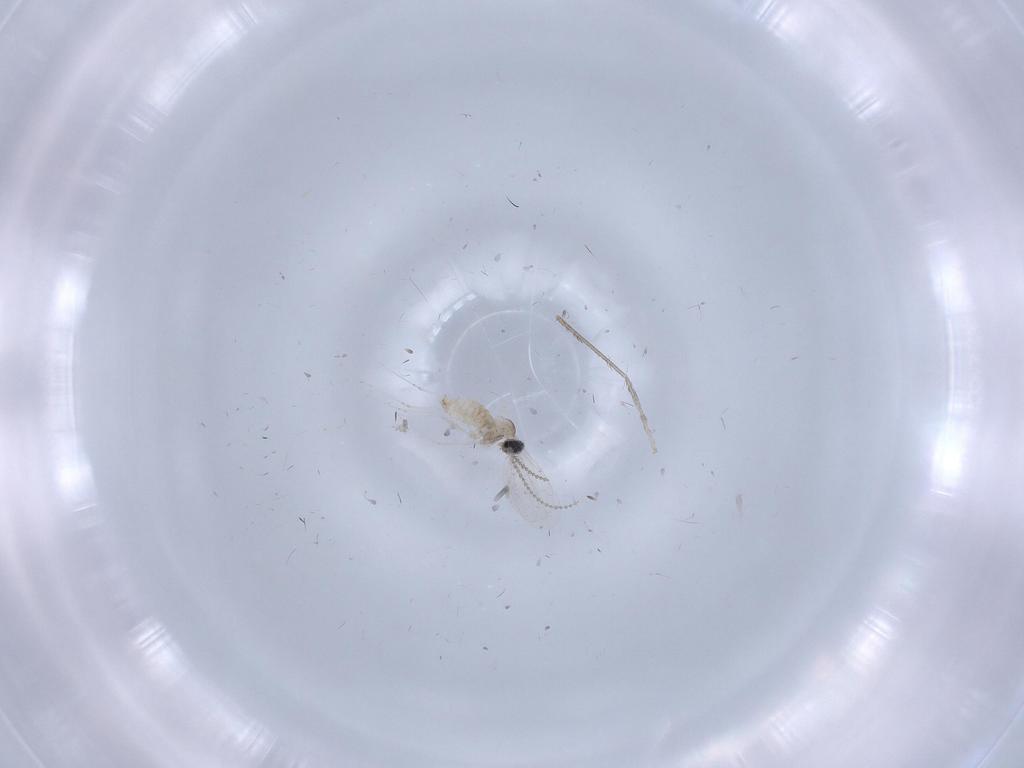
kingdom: Animalia
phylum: Arthropoda
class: Insecta
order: Diptera
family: Cecidomyiidae
